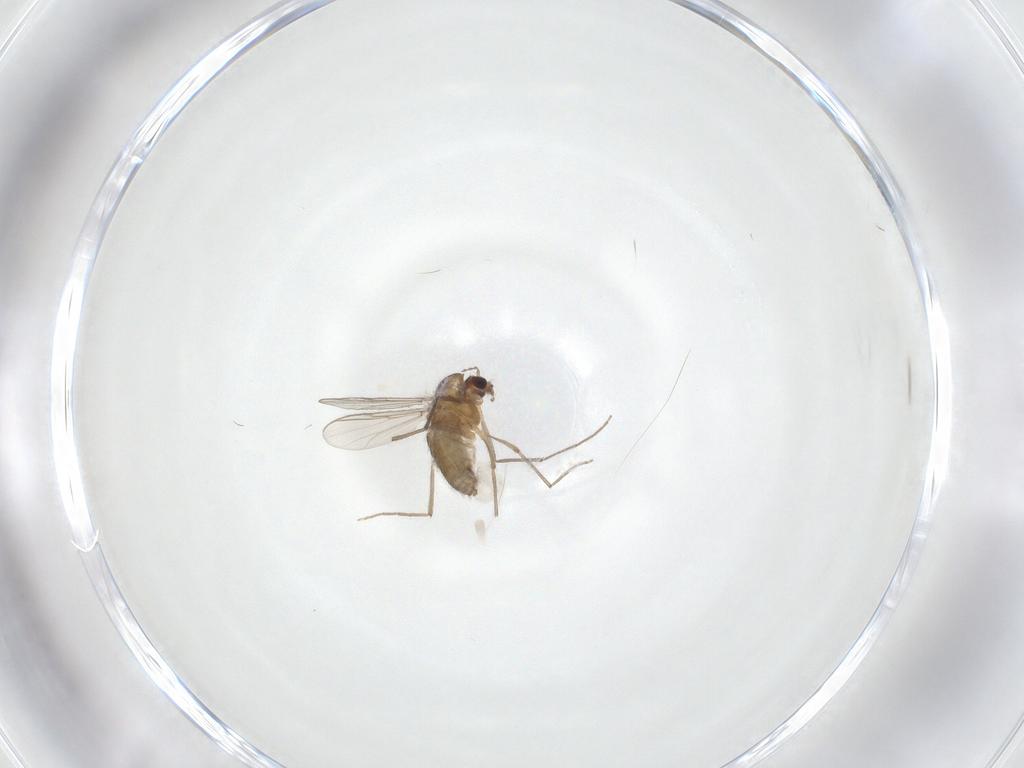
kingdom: Animalia
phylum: Arthropoda
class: Insecta
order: Diptera
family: Chironomidae
